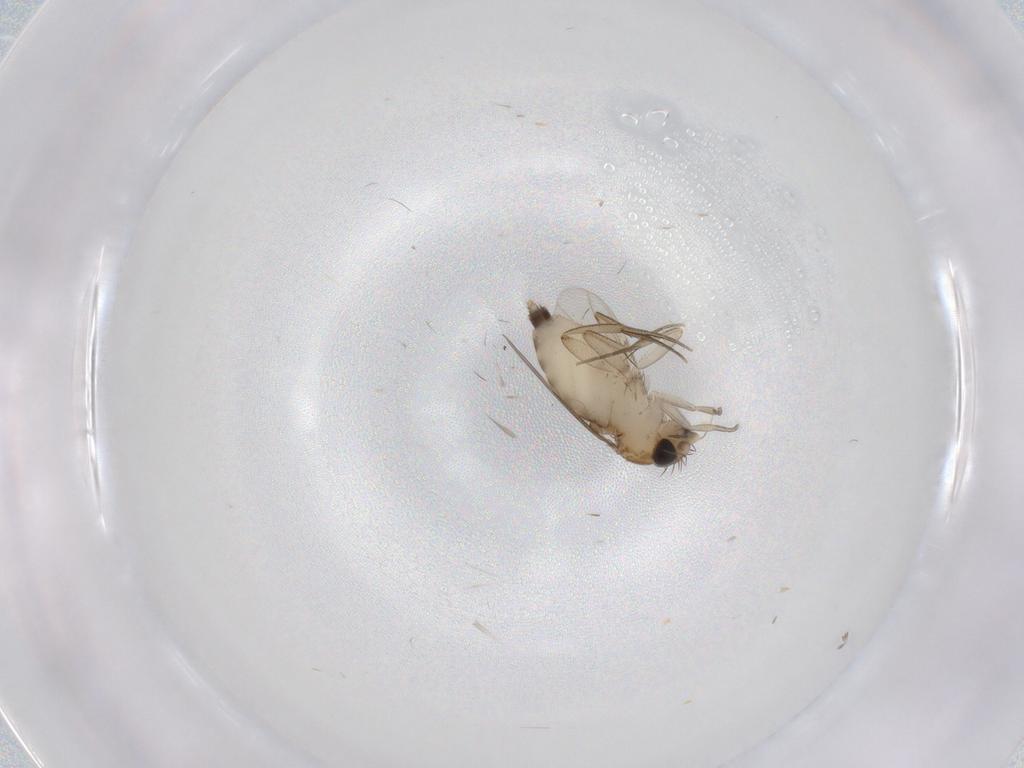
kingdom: Animalia
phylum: Arthropoda
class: Insecta
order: Diptera
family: Cecidomyiidae
